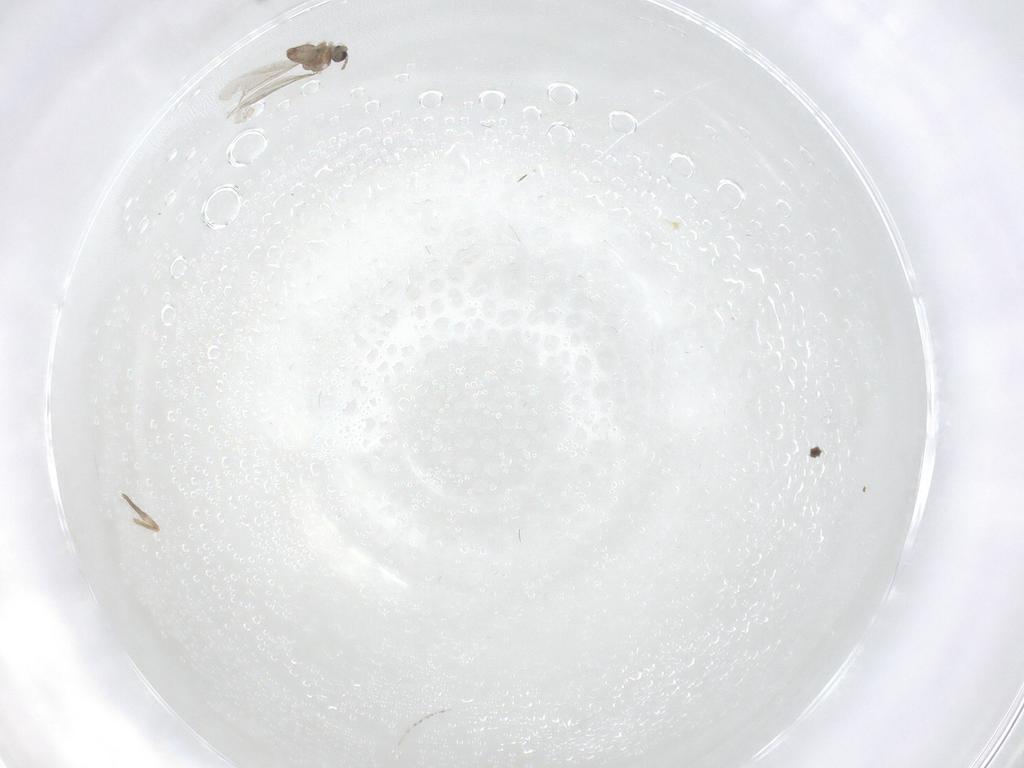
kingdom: Animalia
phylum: Arthropoda
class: Insecta
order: Diptera
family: Cecidomyiidae
